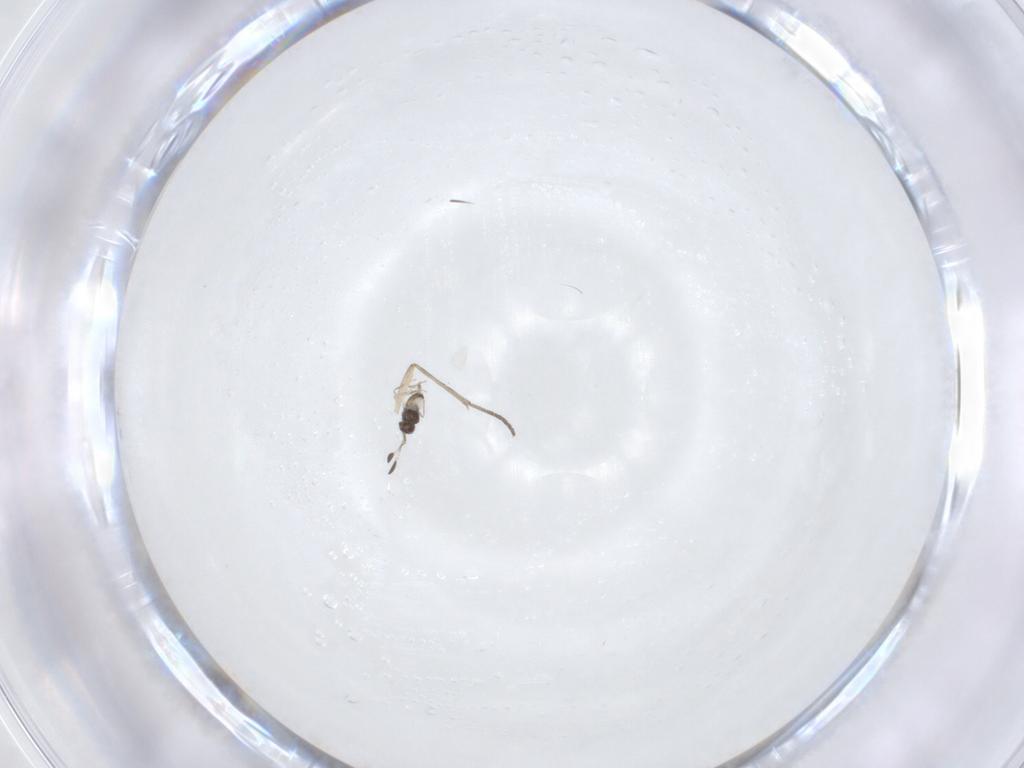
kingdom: Animalia
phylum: Arthropoda
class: Insecta
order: Diptera
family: Sciaridae
